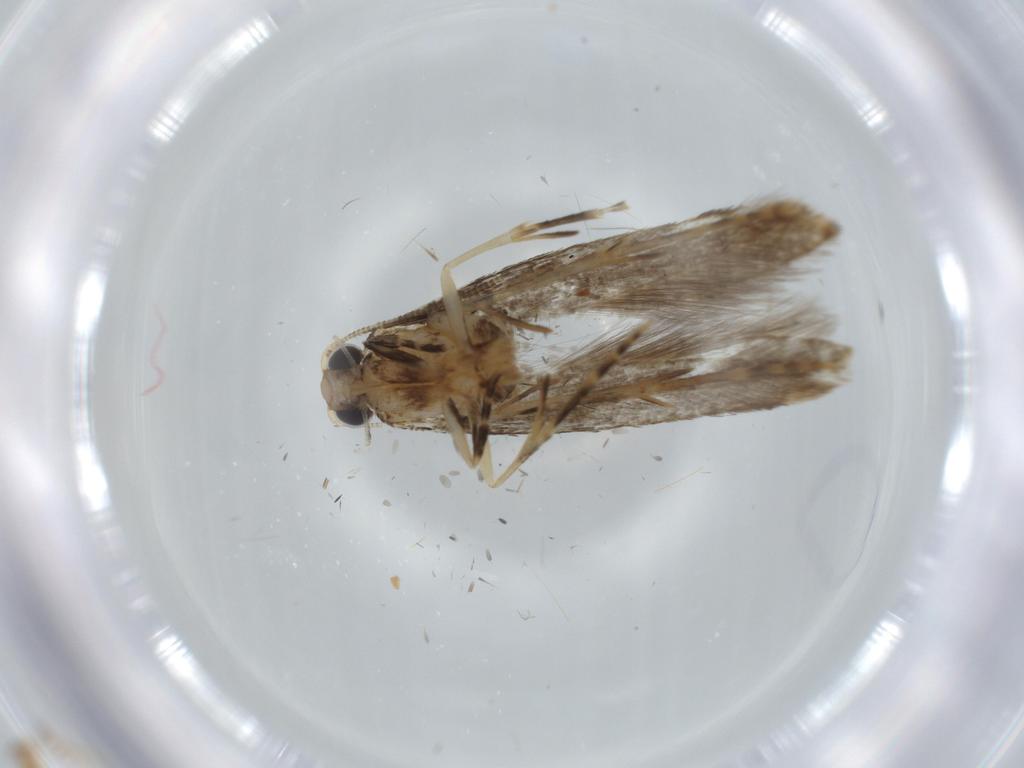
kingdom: Animalia
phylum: Arthropoda
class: Insecta
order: Lepidoptera
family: Tineidae
